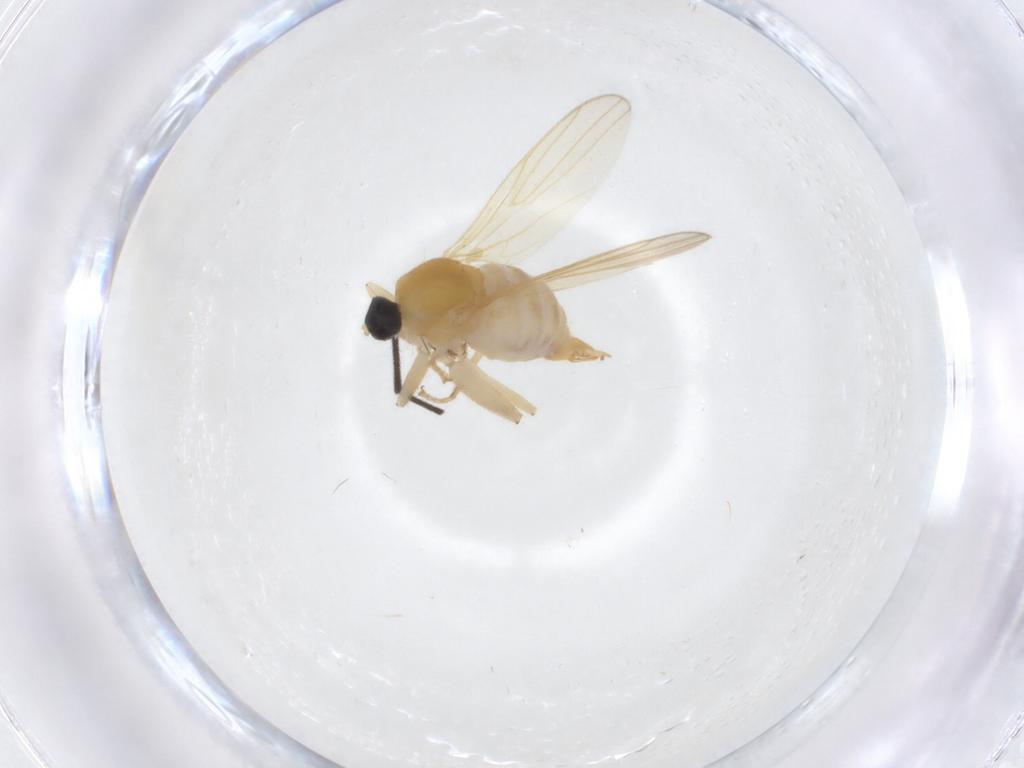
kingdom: Animalia
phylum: Arthropoda
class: Insecta
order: Diptera
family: Hybotidae
